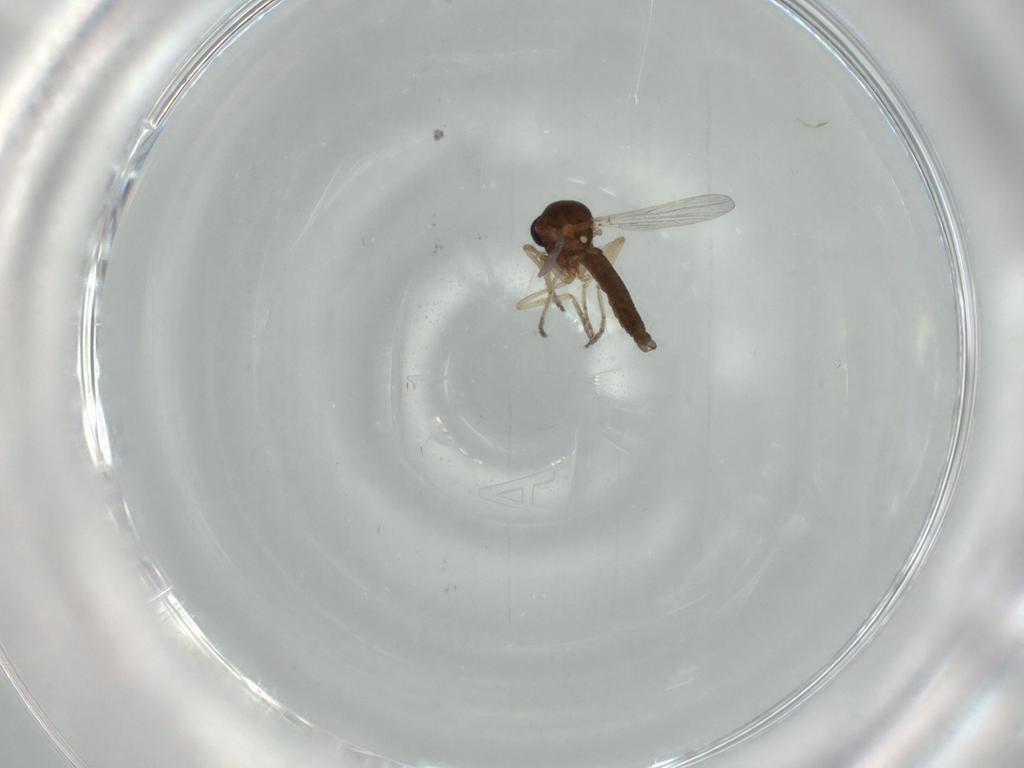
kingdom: Animalia
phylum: Arthropoda
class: Insecta
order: Diptera
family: Ceratopogonidae
